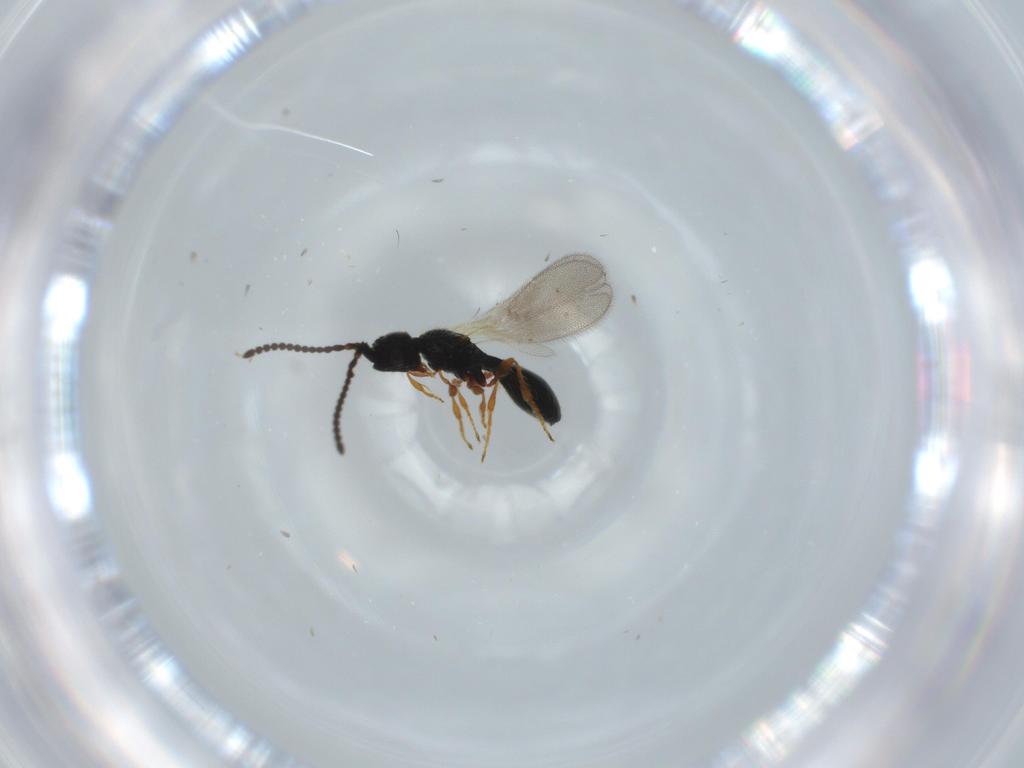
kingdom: Animalia
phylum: Arthropoda
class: Insecta
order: Hymenoptera
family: Diapriidae
